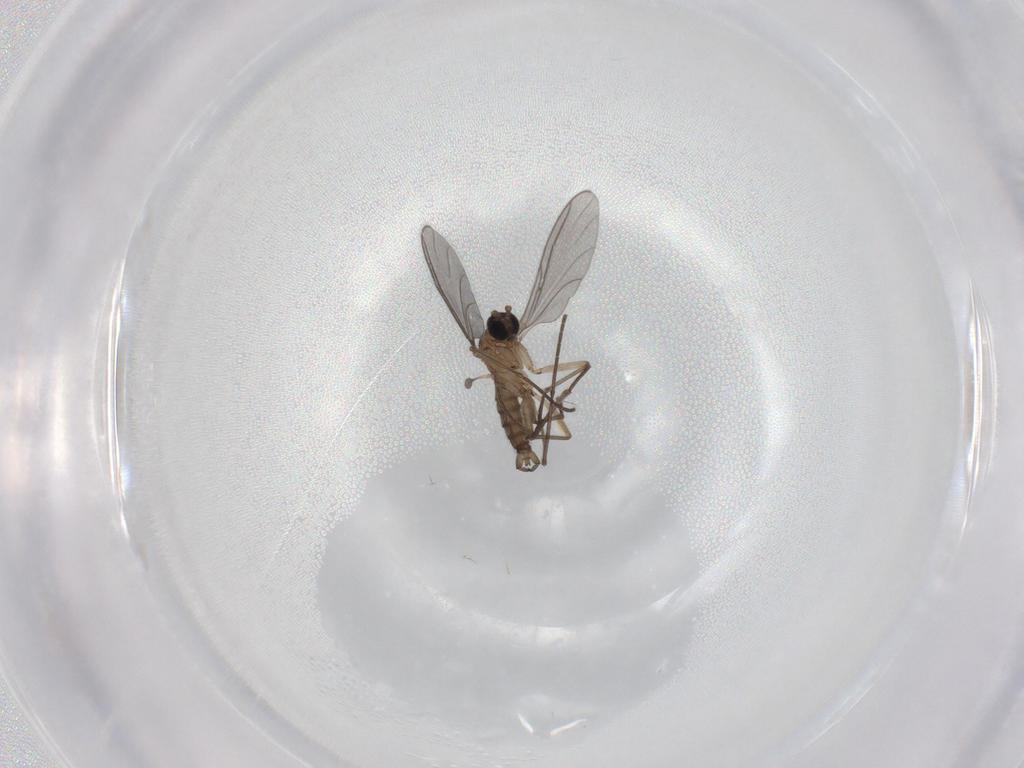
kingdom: Animalia
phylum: Arthropoda
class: Insecta
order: Diptera
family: Sciaridae
